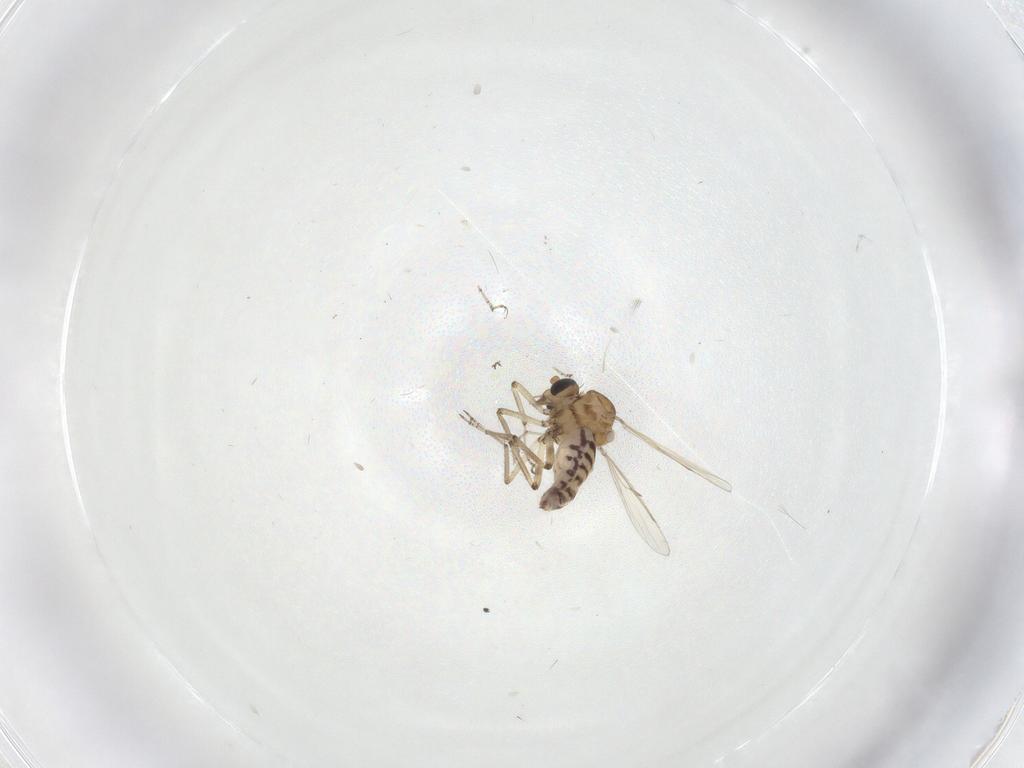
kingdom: Animalia
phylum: Arthropoda
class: Insecta
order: Diptera
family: Ceratopogonidae
